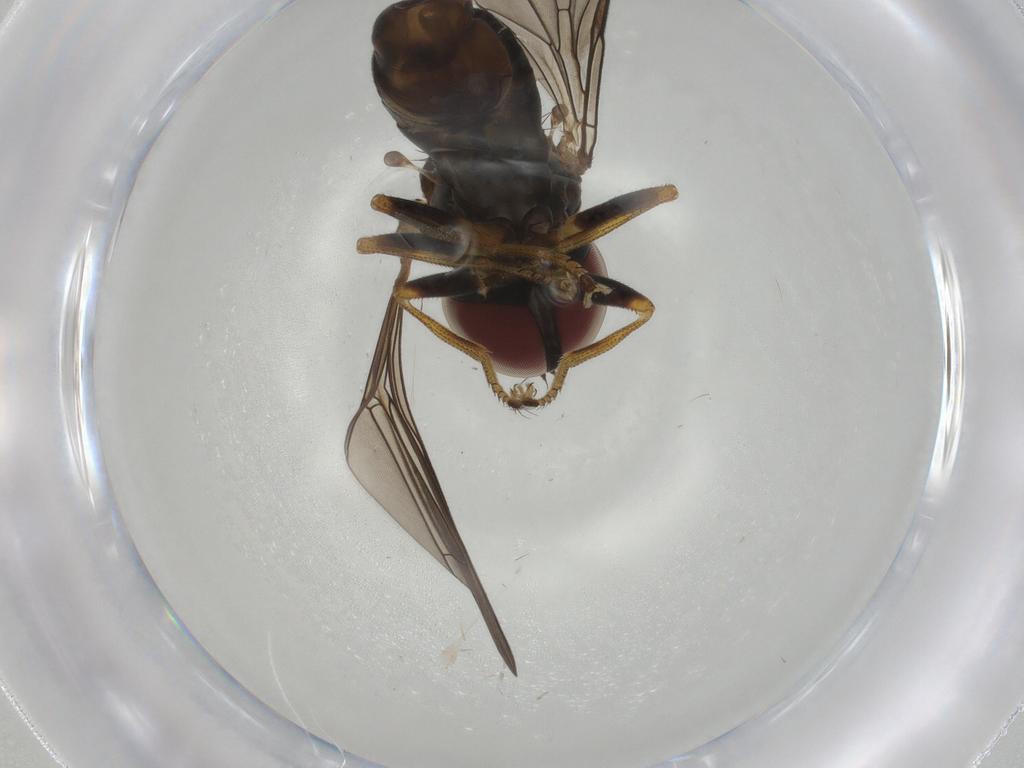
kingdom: Animalia
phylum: Arthropoda
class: Insecta
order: Diptera
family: Pipunculidae
